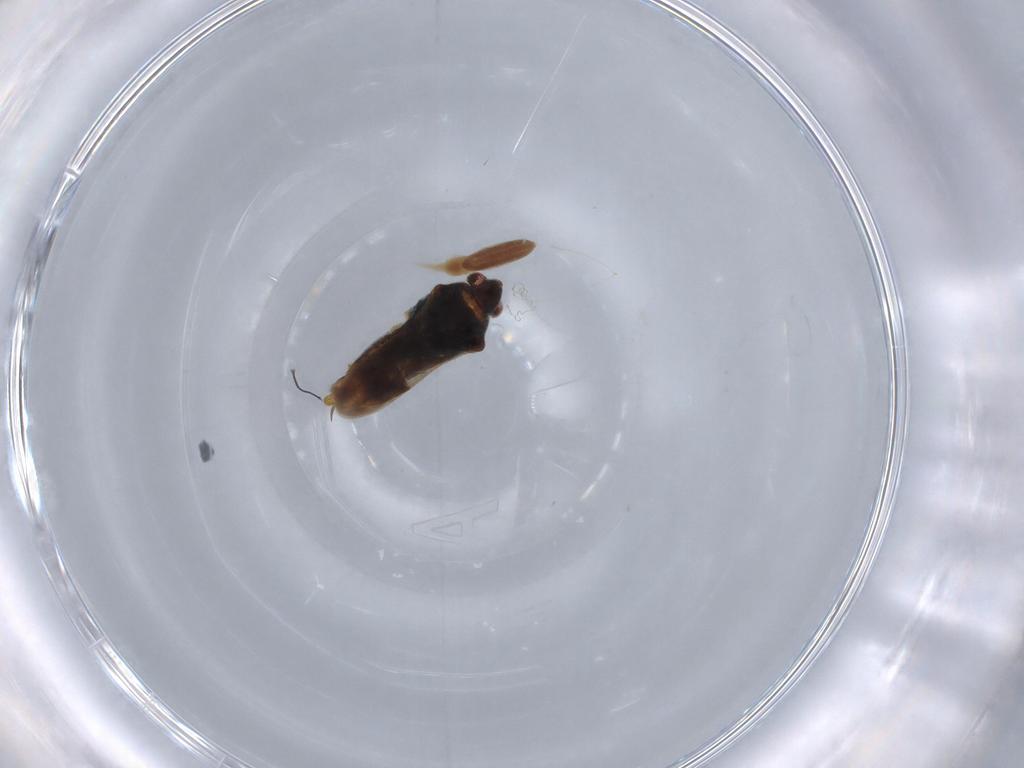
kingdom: Animalia
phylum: Arthropoda
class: Insecta
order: Hemiptera
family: Veliidae
